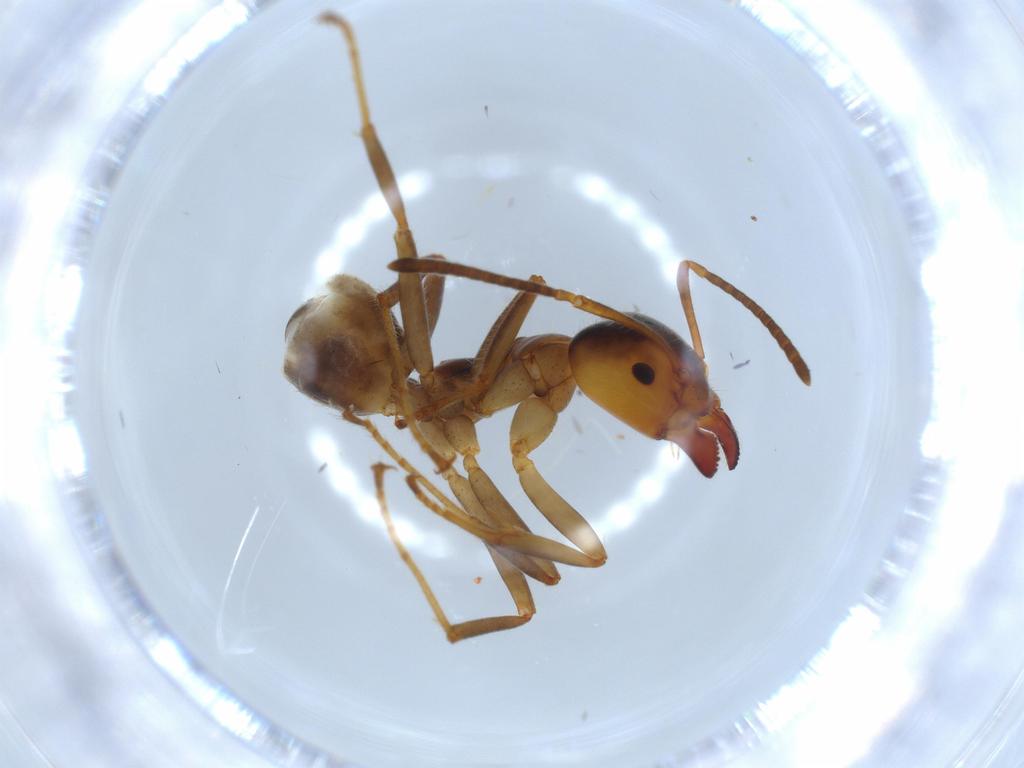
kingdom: Animalia
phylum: Arthropoda
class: Insecta
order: Hymenoptera
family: Formicidae
